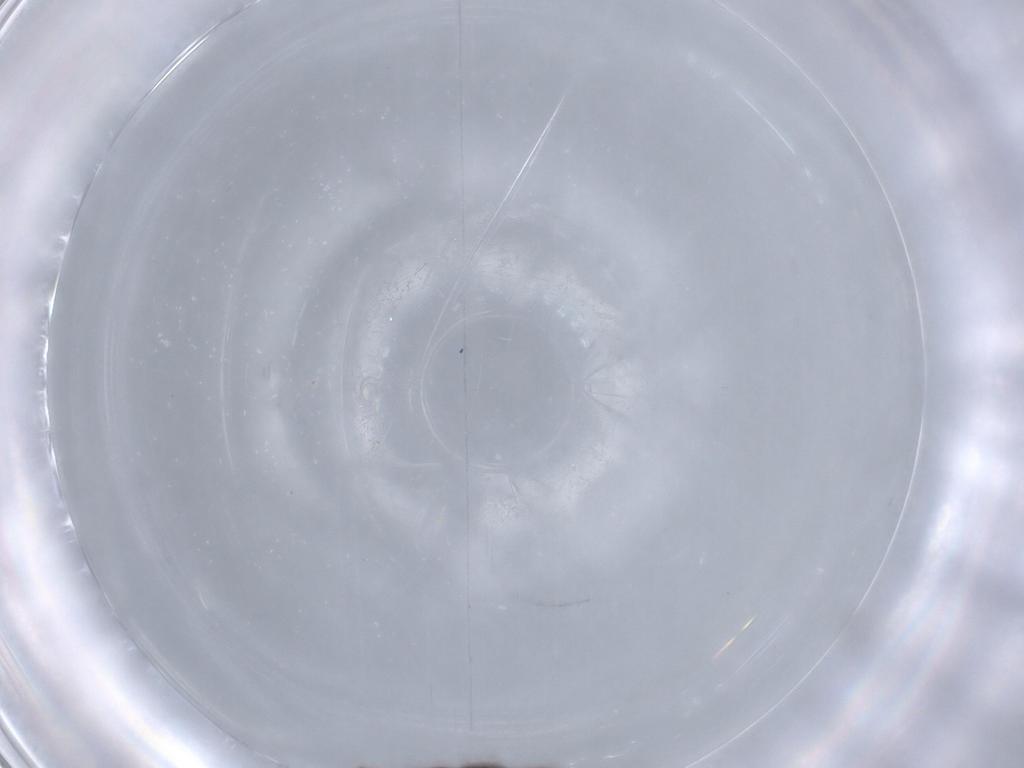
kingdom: Animalia
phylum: Arthropoda
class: Insecta
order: Coleoptera
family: Staphylinidae
